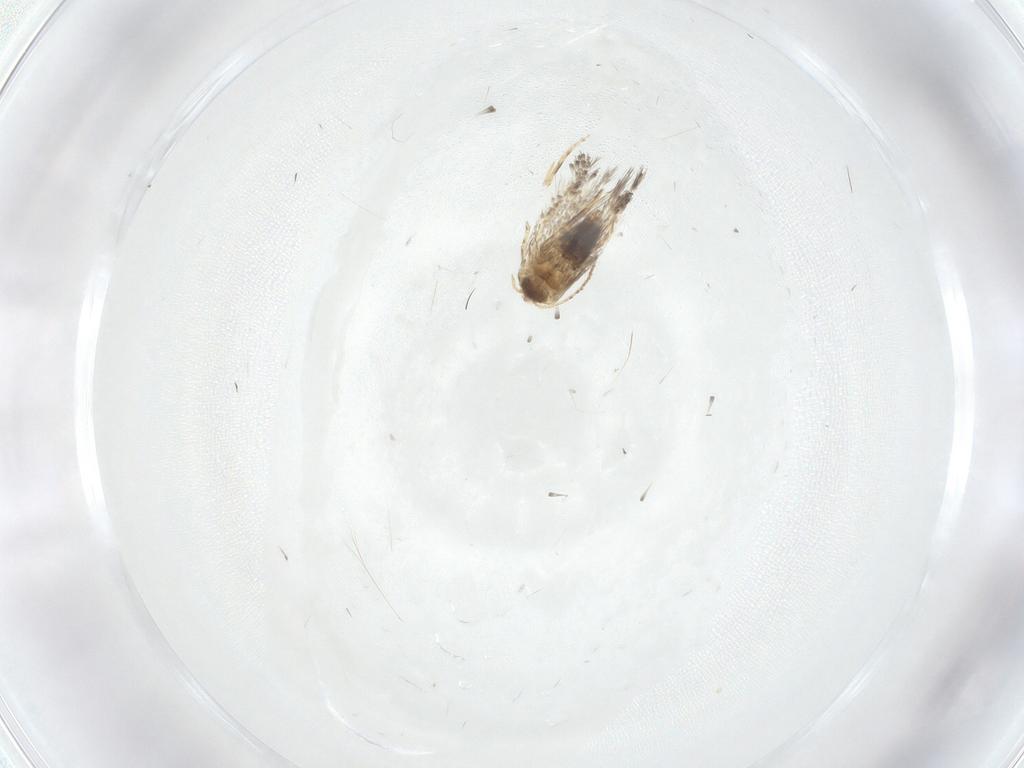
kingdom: Animalia
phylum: Arthropoda
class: Insecta
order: Lepidoptera
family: Nepticulidae
